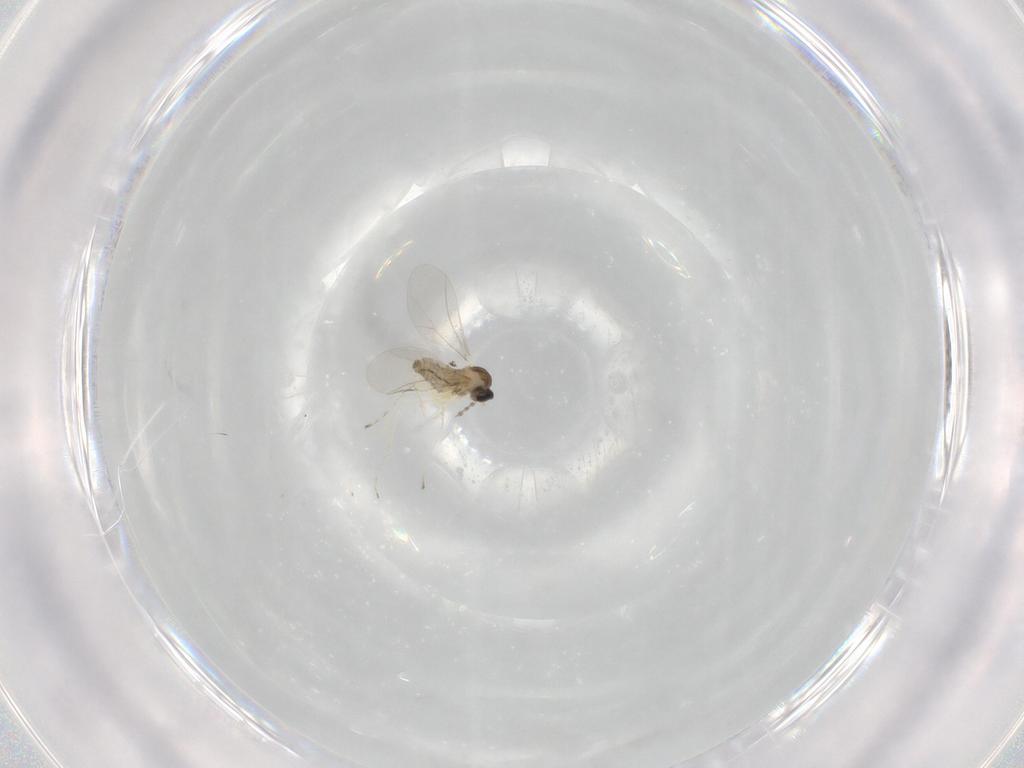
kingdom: Animalia
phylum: Arthropoda
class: Insecta
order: Diptera
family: Cecidomyiidae
